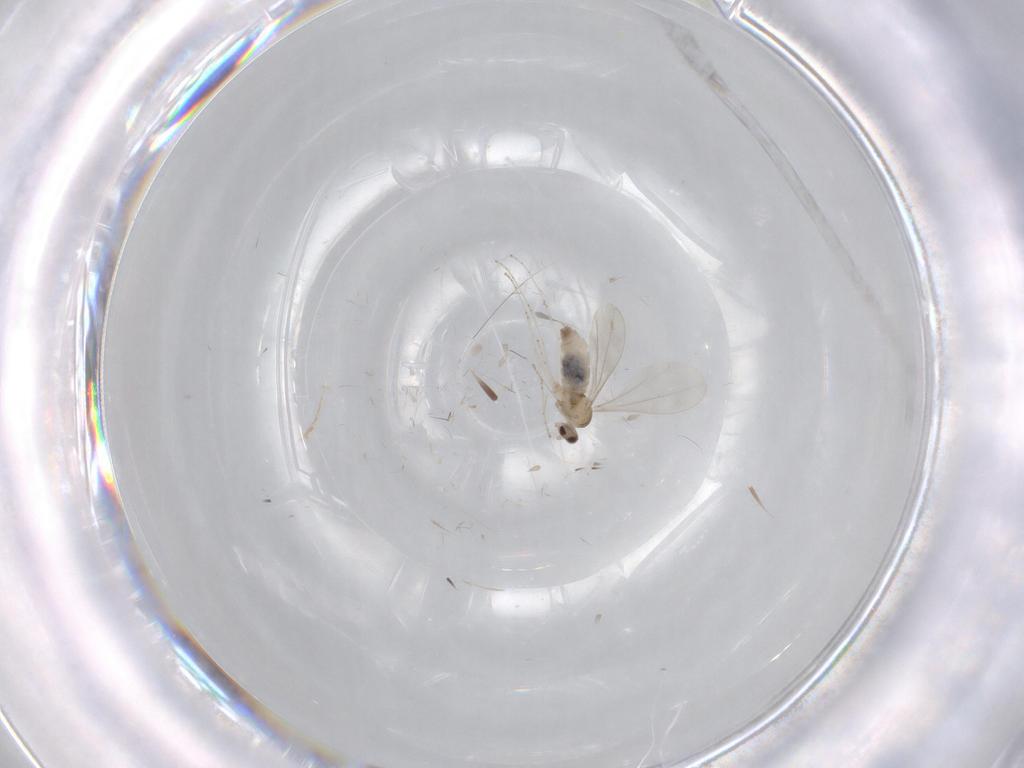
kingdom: Animalia
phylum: Arthropoda
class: Insecta
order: Diptera
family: Cecidomyiidae
